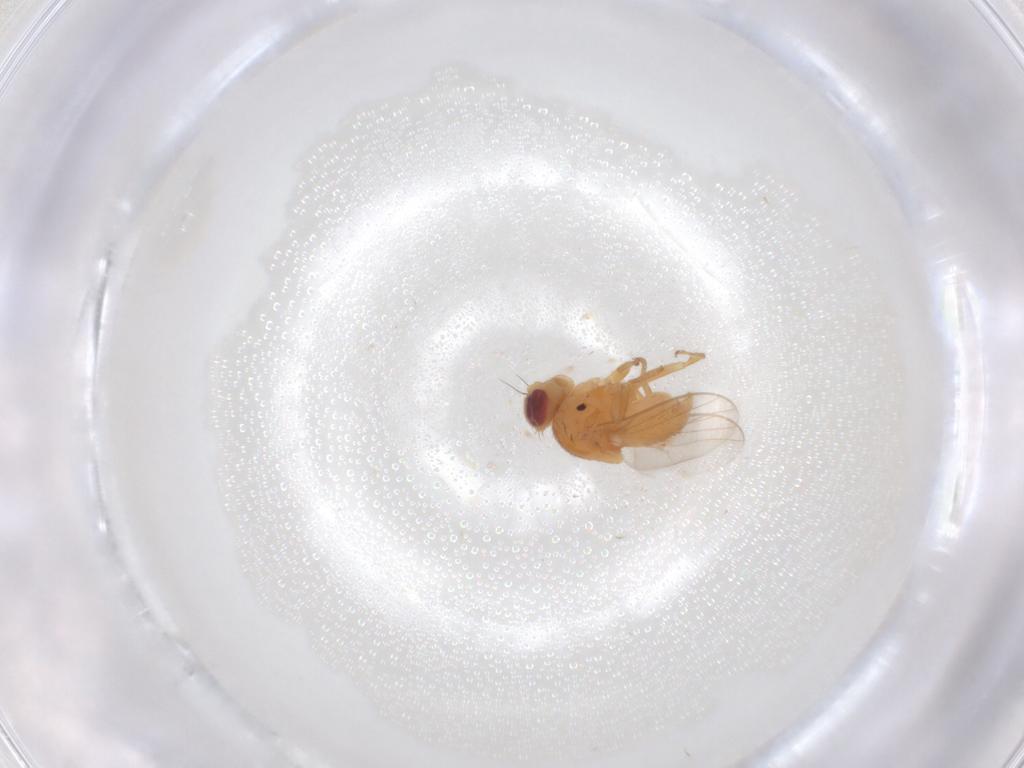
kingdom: Animalia
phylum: Arthropoda
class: Insecta
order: Diptera
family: Chloropidae
